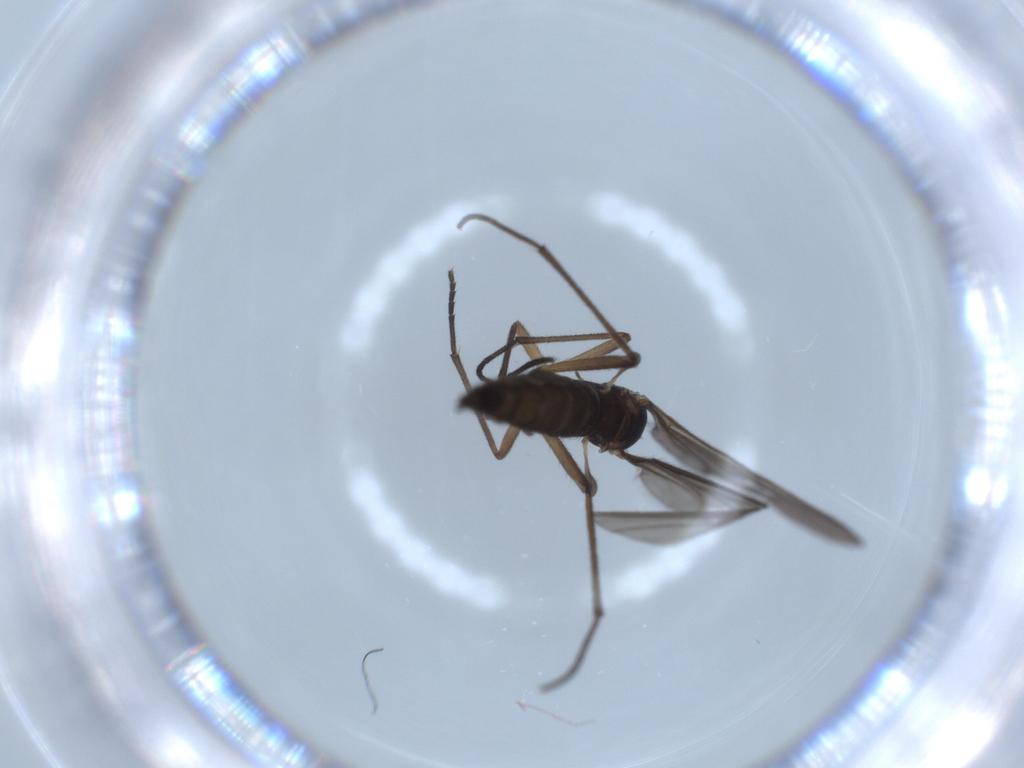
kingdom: Animalia
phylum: Arthropoda
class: Insecta
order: Diptera
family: Sciaridae
